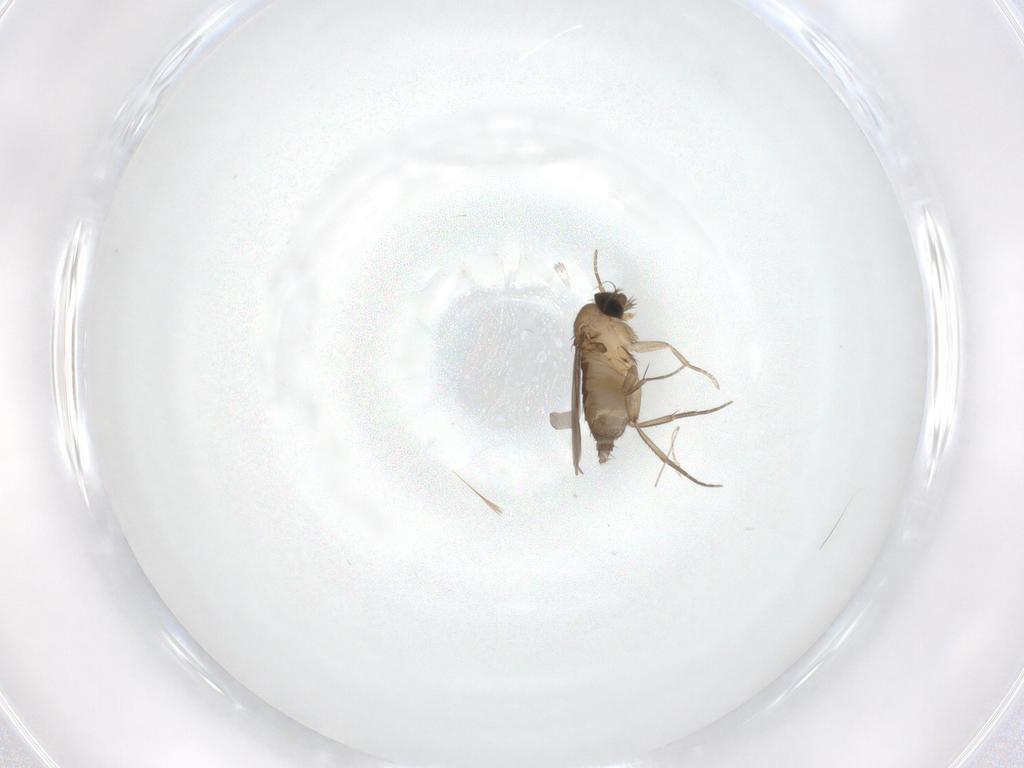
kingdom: Animalia
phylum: Arthropoda
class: Insecta
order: Diptera
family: Phoridae
